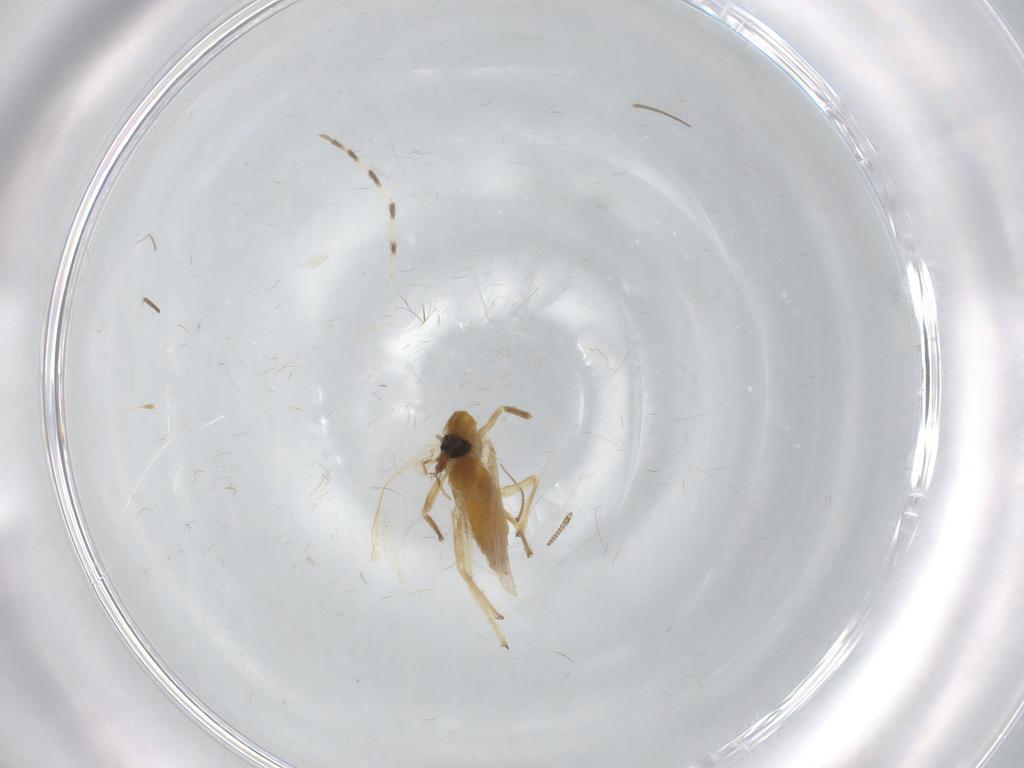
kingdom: Animalia
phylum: Arthropoda
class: Insecta
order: Diptera
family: Chironomidae
